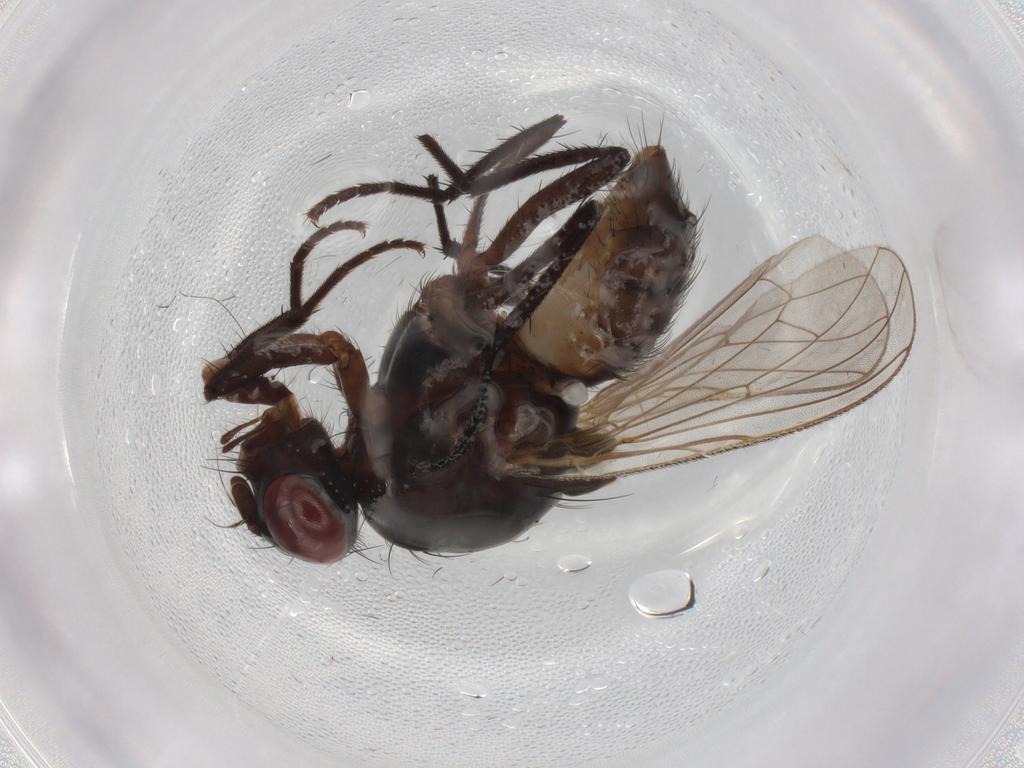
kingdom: Animalia
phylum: Arthropoda
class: Insecta
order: Diptera
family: Anthomyiidae
